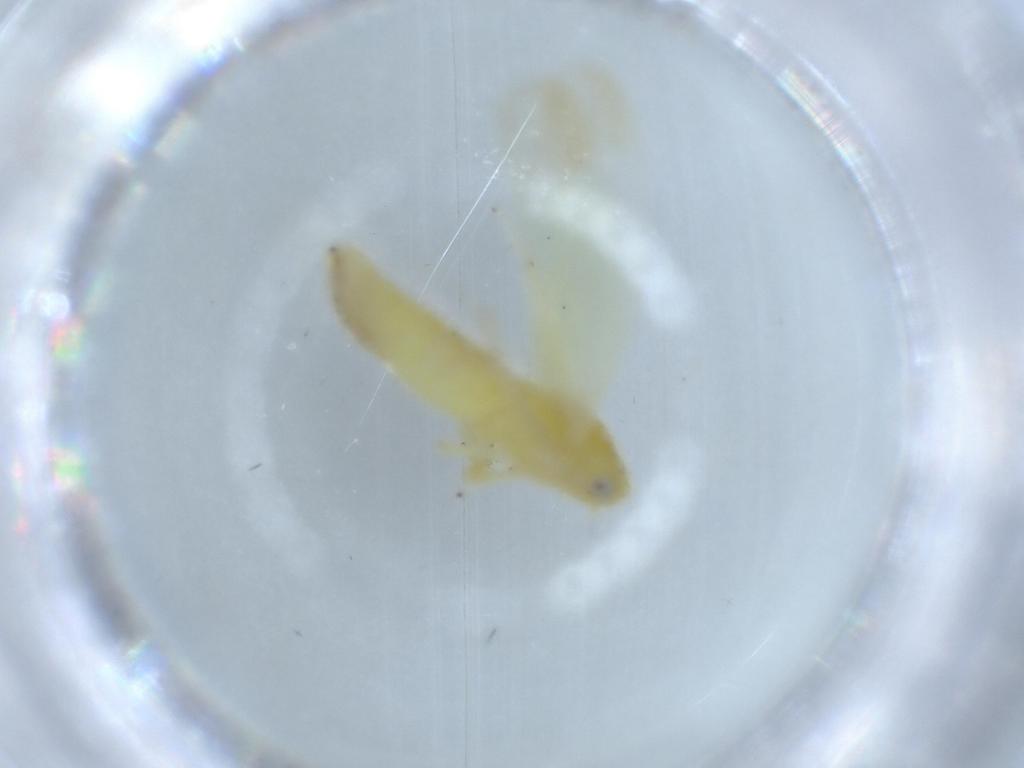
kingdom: Animalia
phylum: Arthropoda
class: Insecta
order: Hemiptera
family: Cicadellidae
